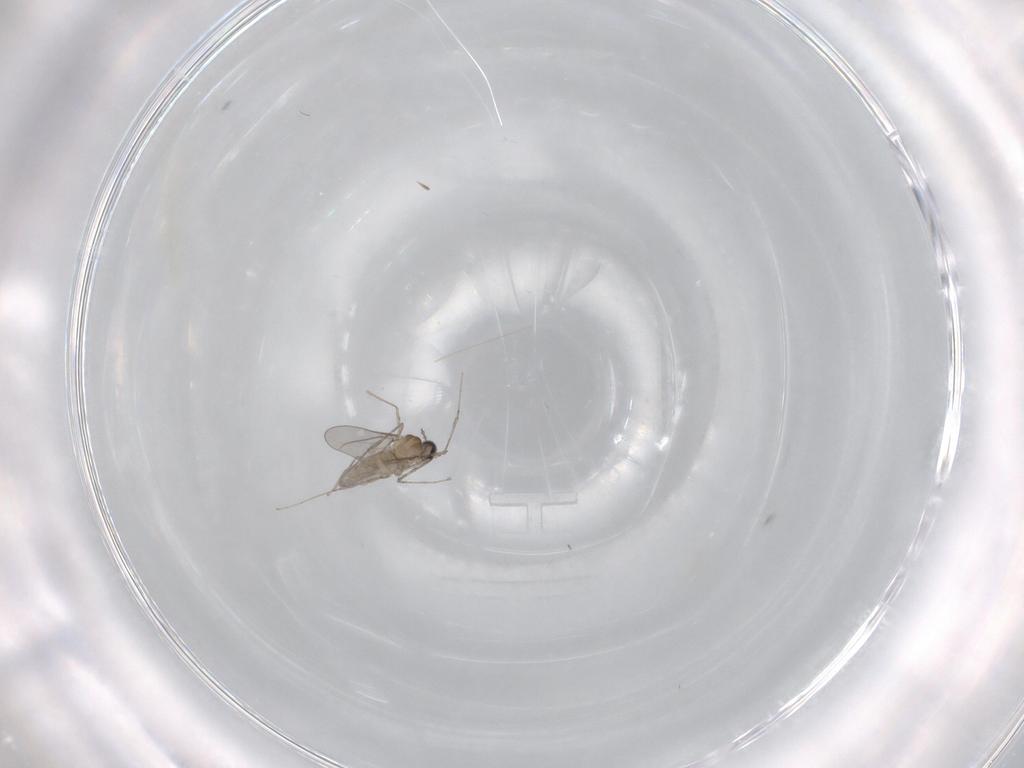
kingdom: Animalia
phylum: Arthropoda
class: Insecta
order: Diptera
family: Cecidomyiidae
